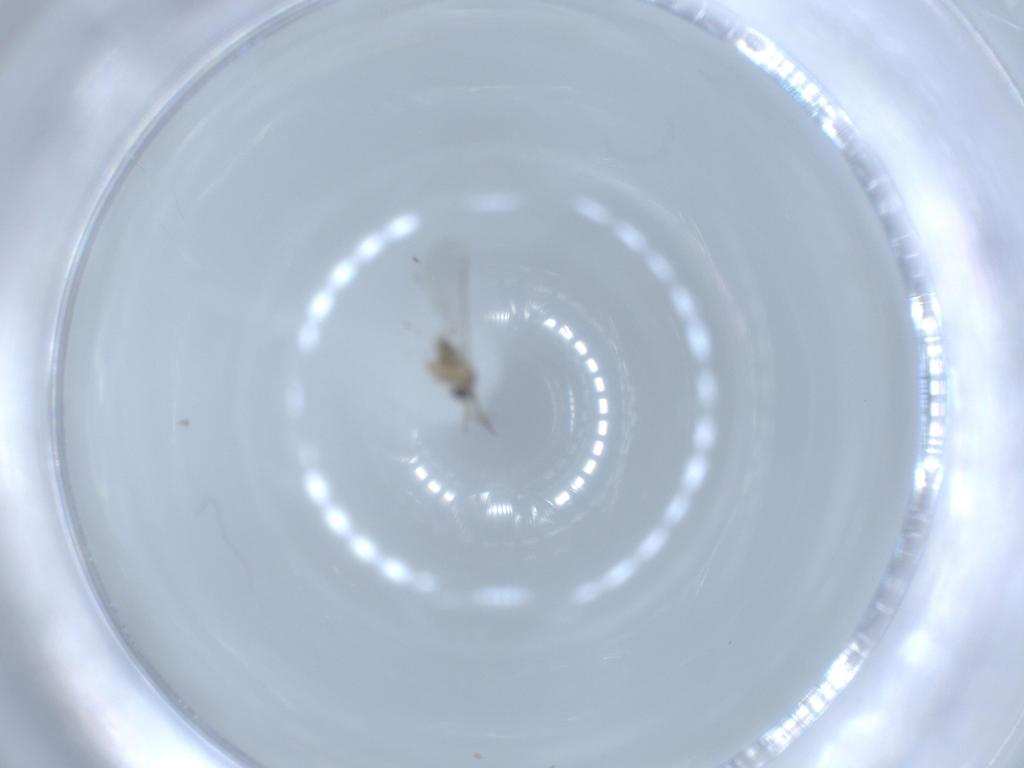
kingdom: Animalia
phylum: Arthropoda
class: Insecta
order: Diptera
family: Cecidomyiidae
